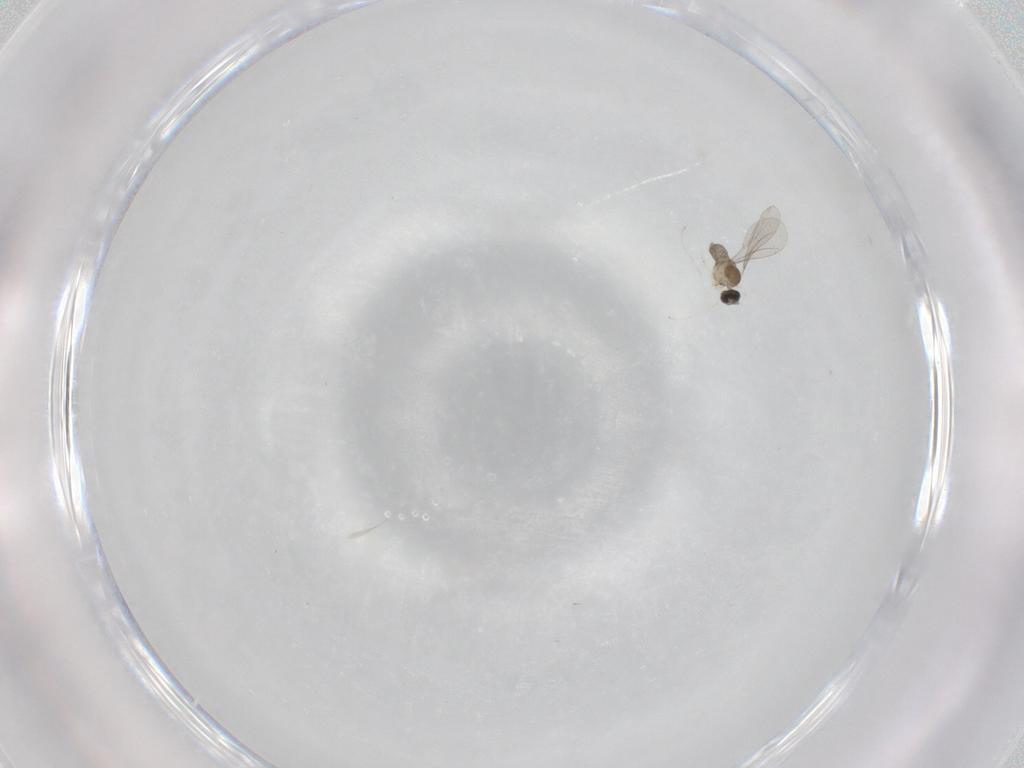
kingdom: Animalia
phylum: Arthropoda
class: Insecta
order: Diptera
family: Cecidomyiidae
